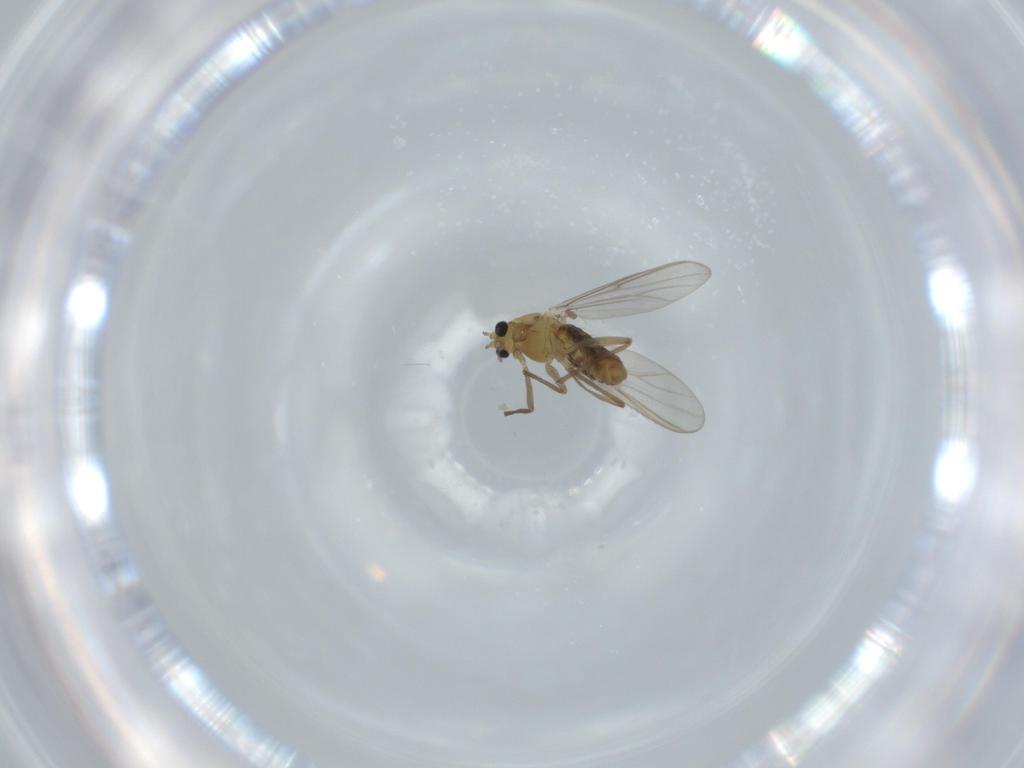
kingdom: Animalia
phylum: Arthropoda
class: Insecta
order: Diptera
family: Chironomidae
